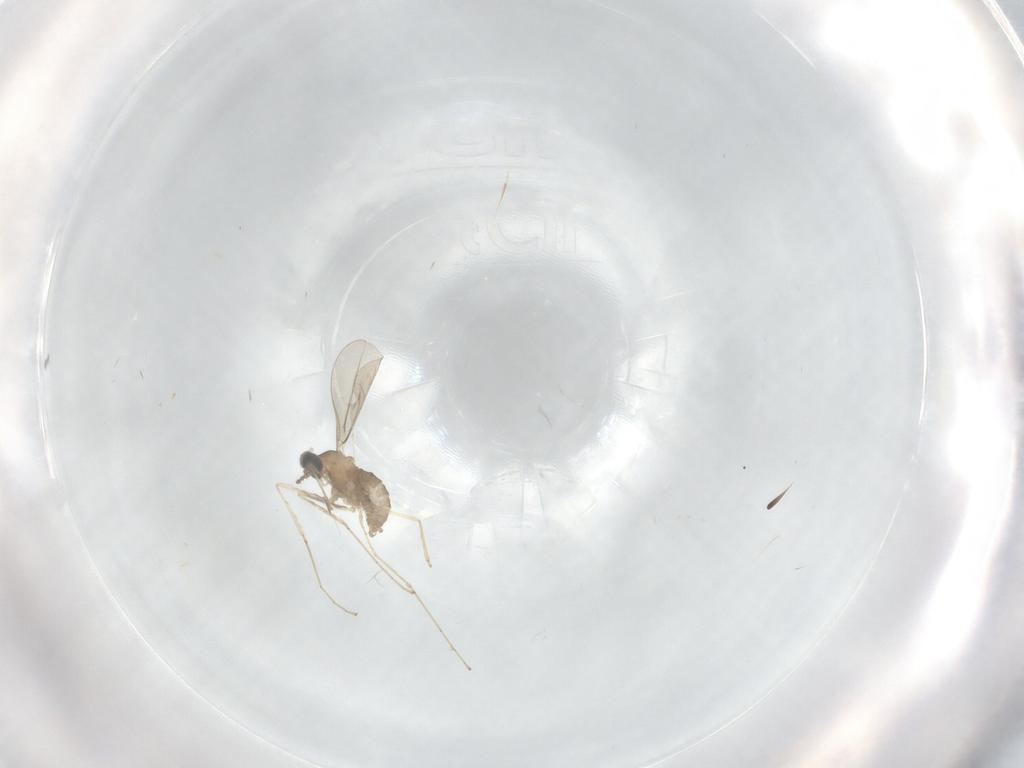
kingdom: Animalia
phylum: Arthropoda
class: Insecta
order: Diptera
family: Cecidomyiidae
